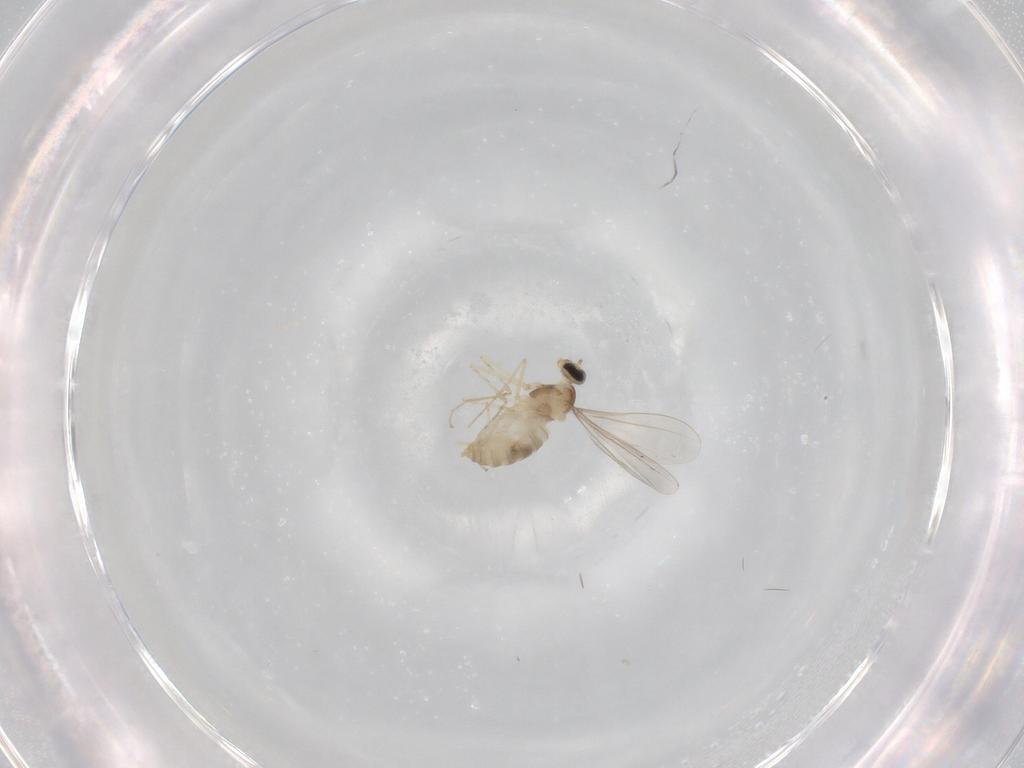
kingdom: Animalia
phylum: Arthropoda
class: Insecta
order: Diptera
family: Cecidomyiidae
